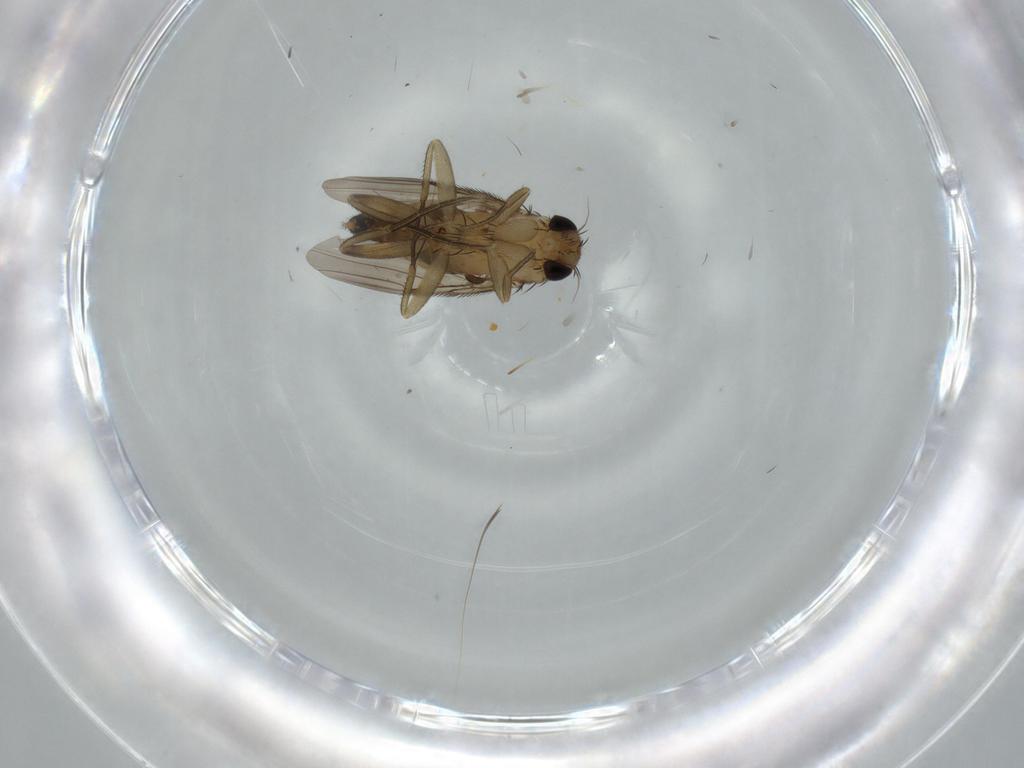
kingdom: Animalia
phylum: Arthropoda
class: Insecta
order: Diptera
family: Phoridae
